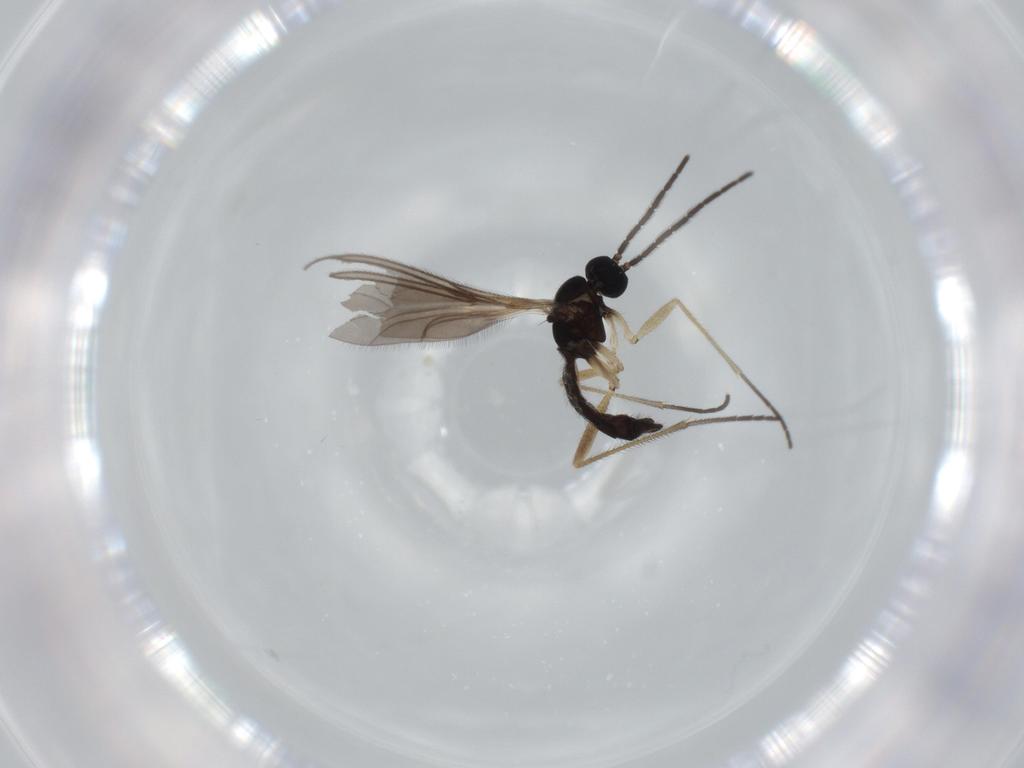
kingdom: Animalia
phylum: Arthropoda
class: Insecta
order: Diptera
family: Sciaridae
